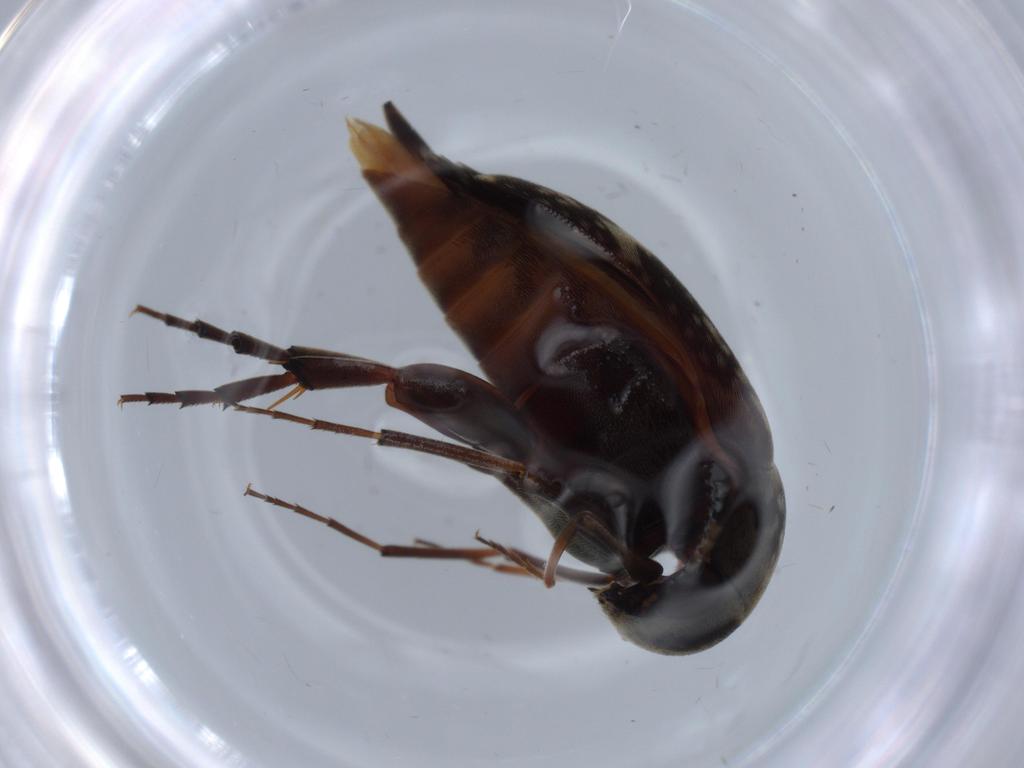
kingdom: Animalia
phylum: Arthropoda
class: Insecta
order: Coleoptera
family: Ptilodactylidae
